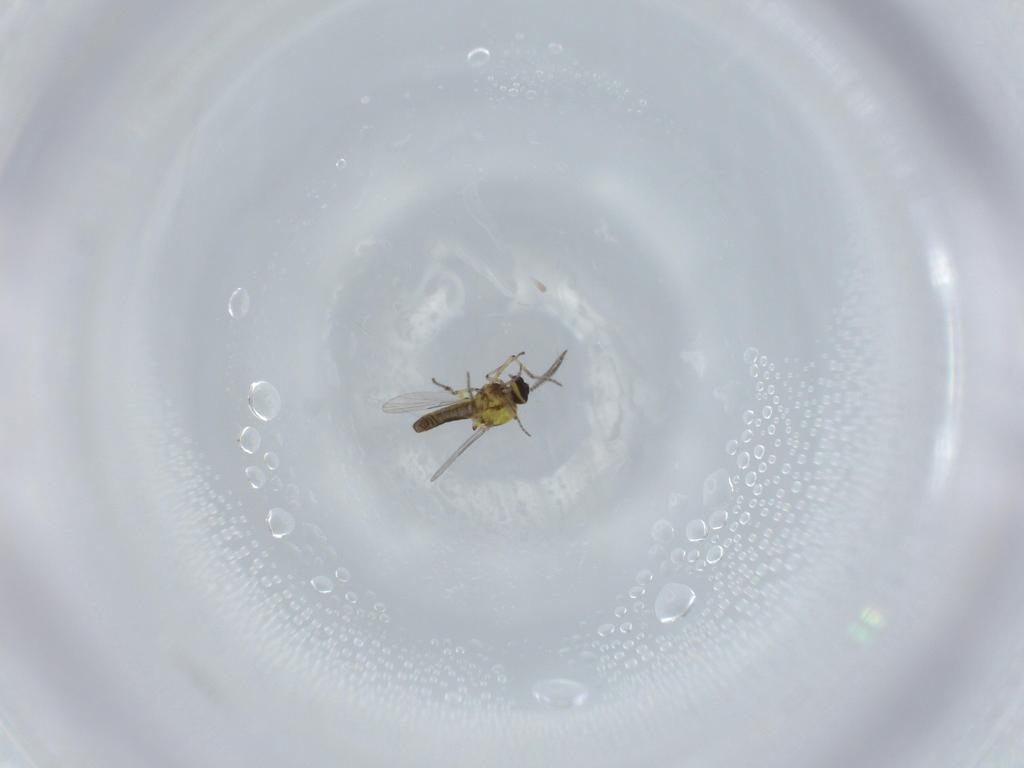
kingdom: Animalia
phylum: Arthropoda
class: Insecta
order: Diptera
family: Ceratopogonidae
